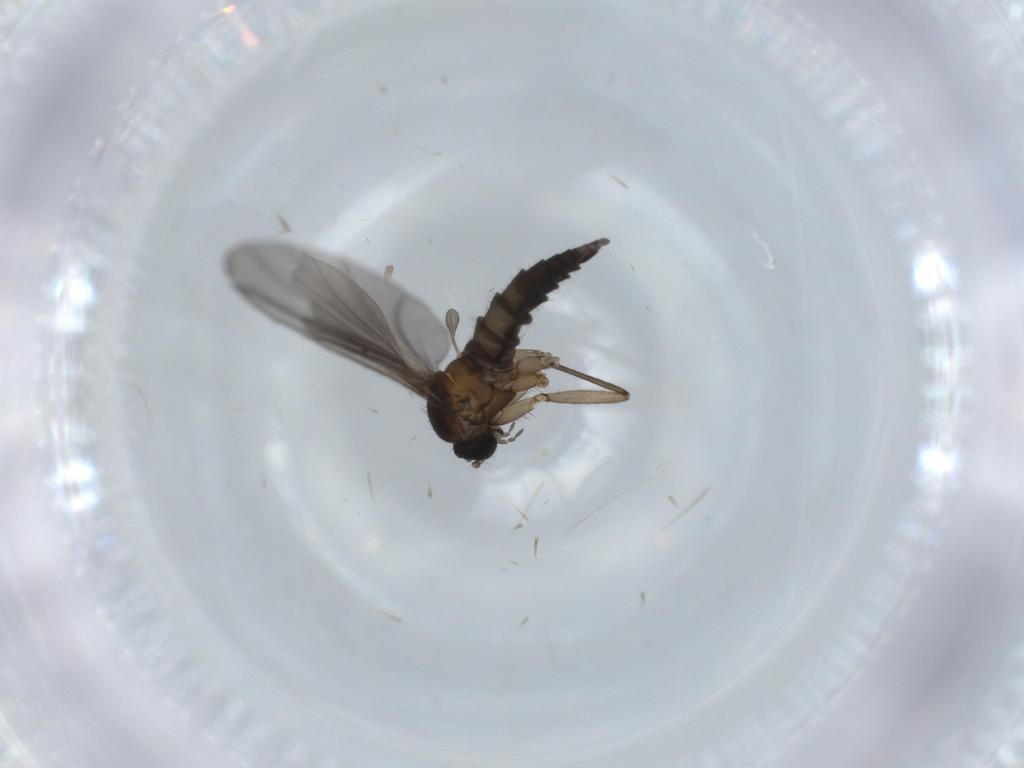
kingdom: Animalia
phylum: Arthropoda
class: Insecta
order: Diptera
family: Sciaridae
